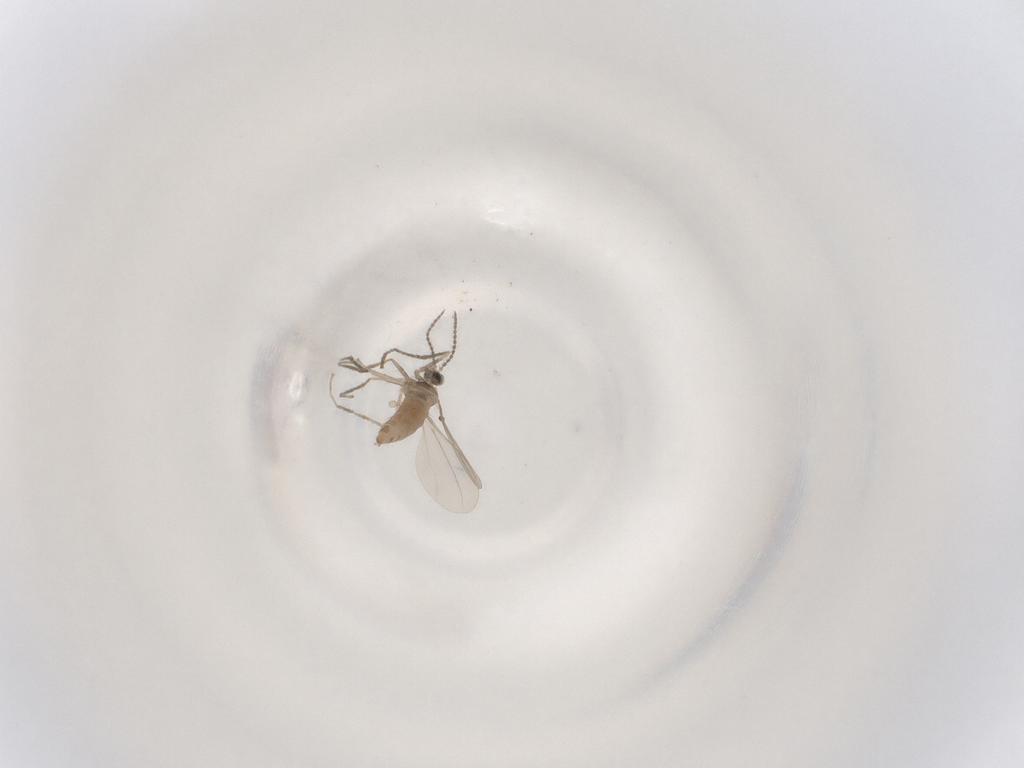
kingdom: Animalia
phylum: Arthropoda
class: Insecta
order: Diptera
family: Cecidomyiidae
